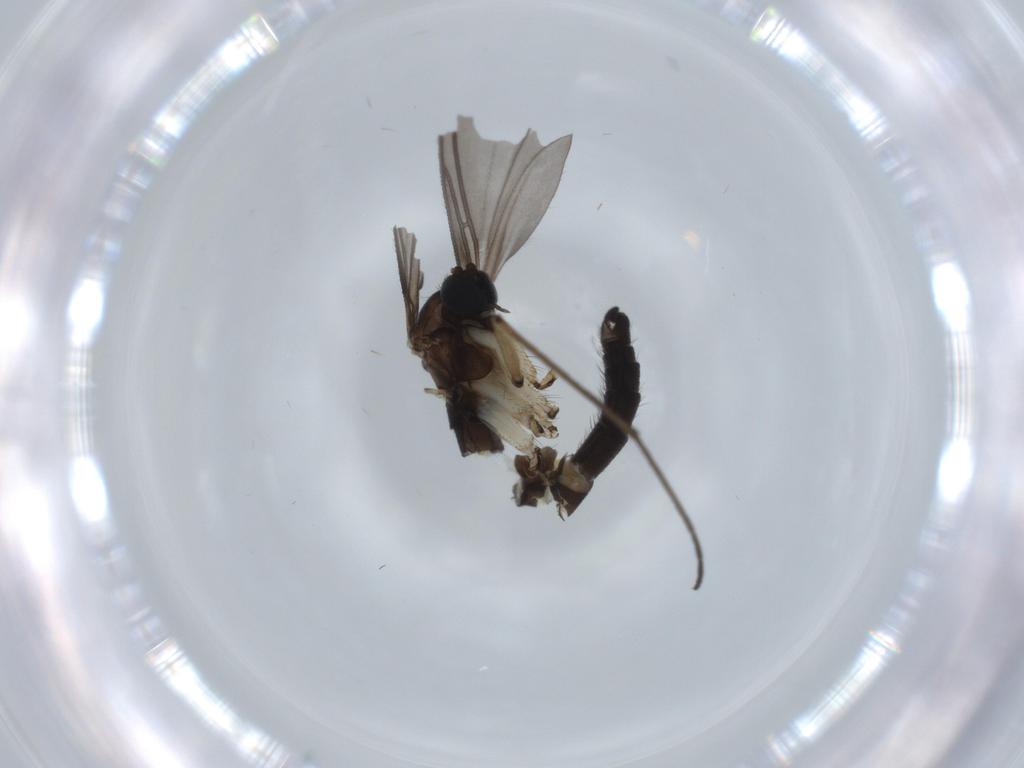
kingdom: Animalia
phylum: Arthropoda
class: Insecta
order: Diptera
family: Sciaridae
